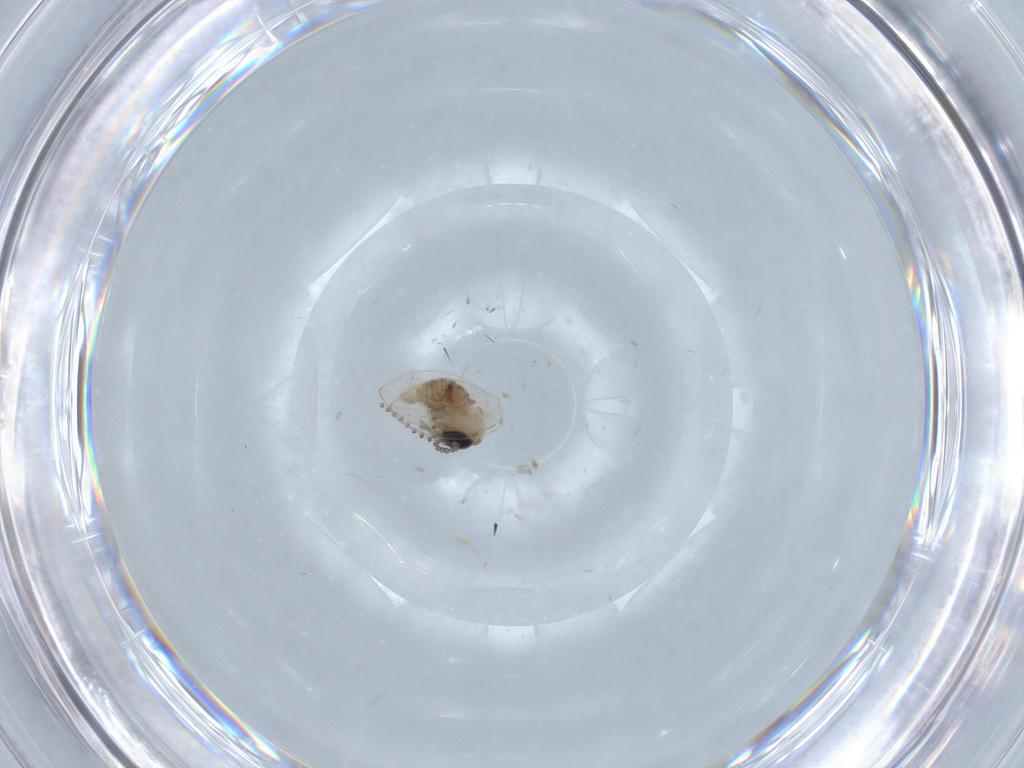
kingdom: Animalia
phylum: Arthropoda
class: Insecta
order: Diptera
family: Psychodidae
